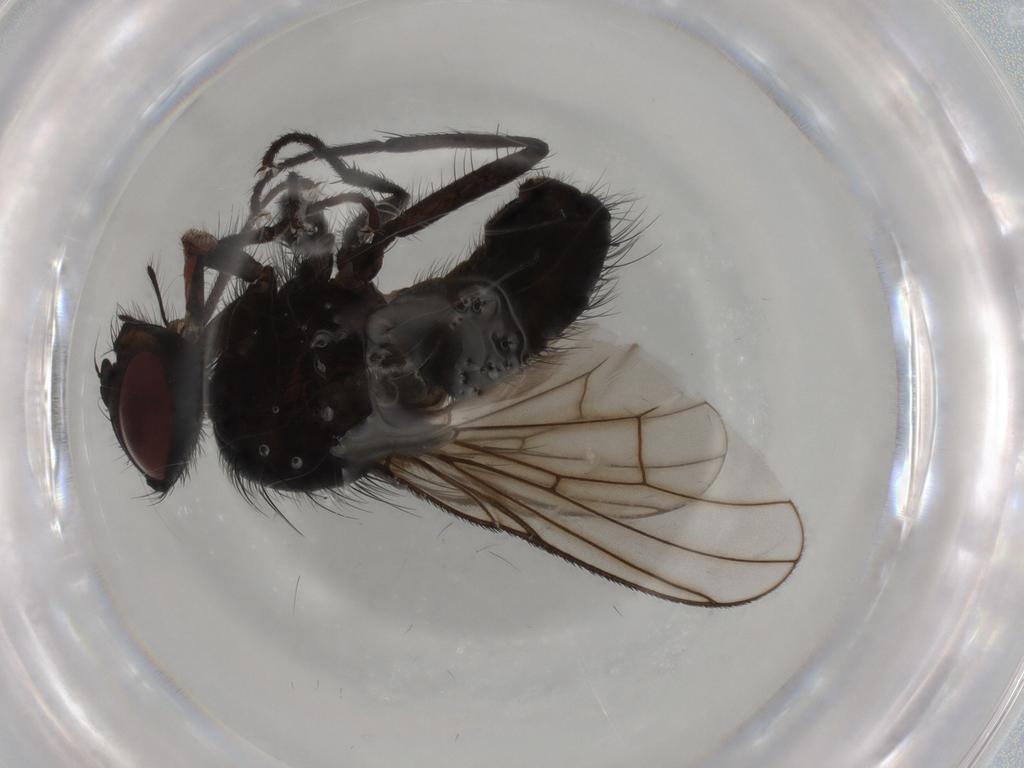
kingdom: Animalia
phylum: Arthropoda
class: Insecta
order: Diptera
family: Muscidae
